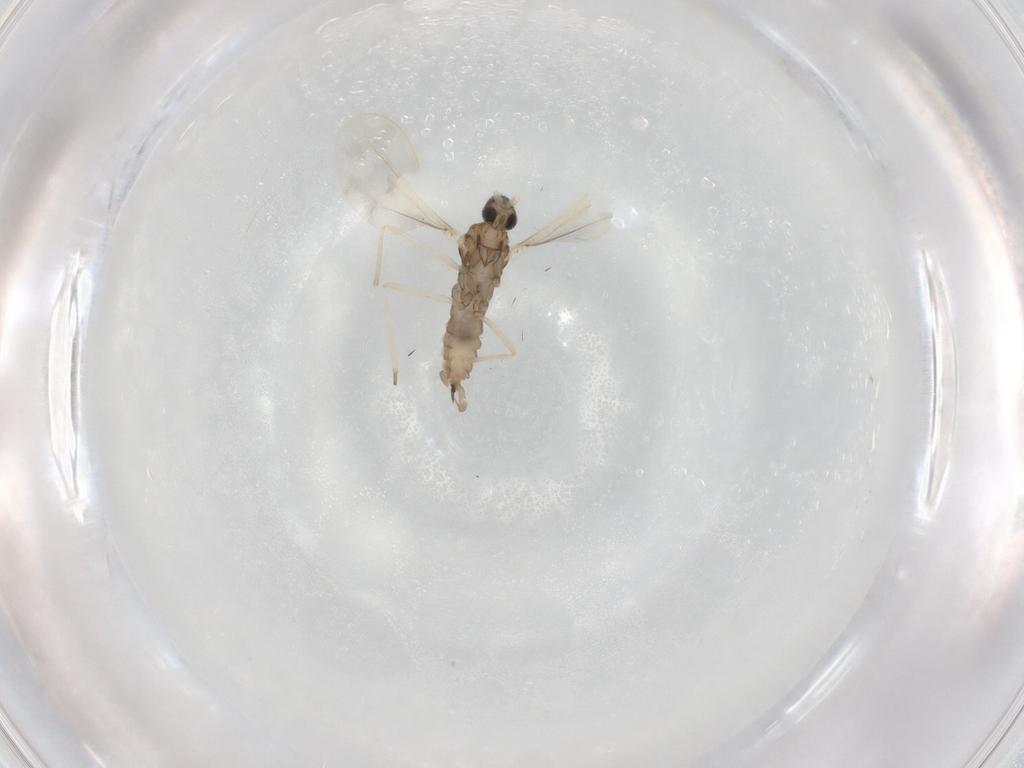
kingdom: Animalia
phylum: Arthropoda
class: Insecta
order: Diptera
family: Cecidomyiidae
